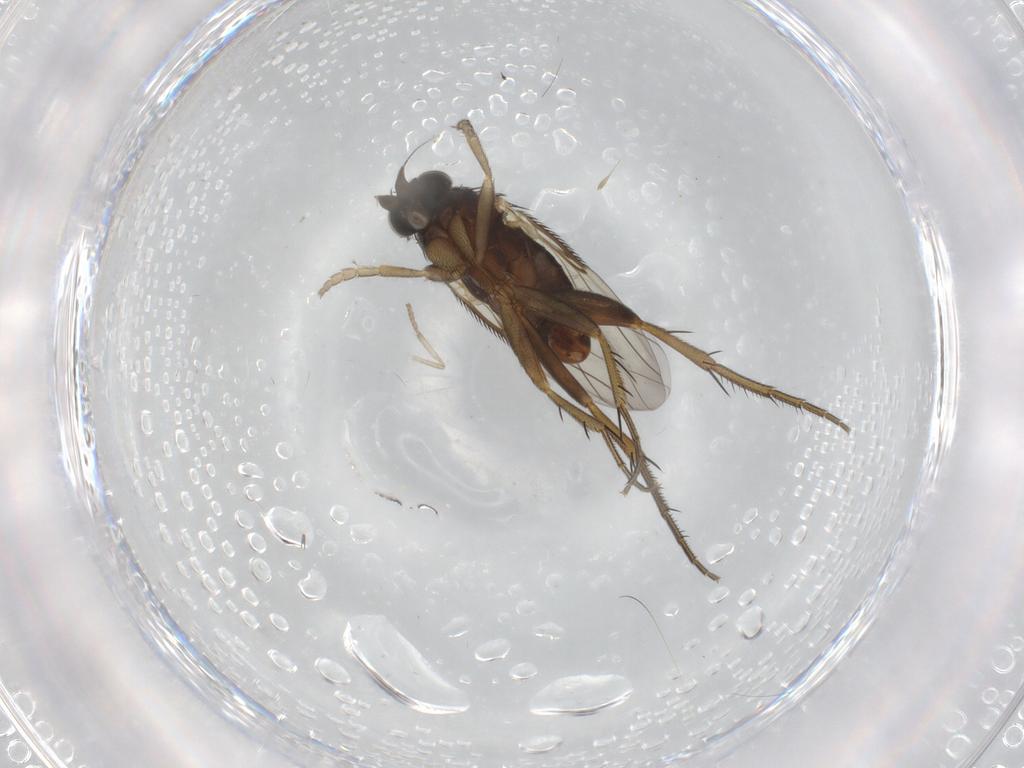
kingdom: Animalia
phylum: Arthropoda
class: Insecta
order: Diptera
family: Phoridae
